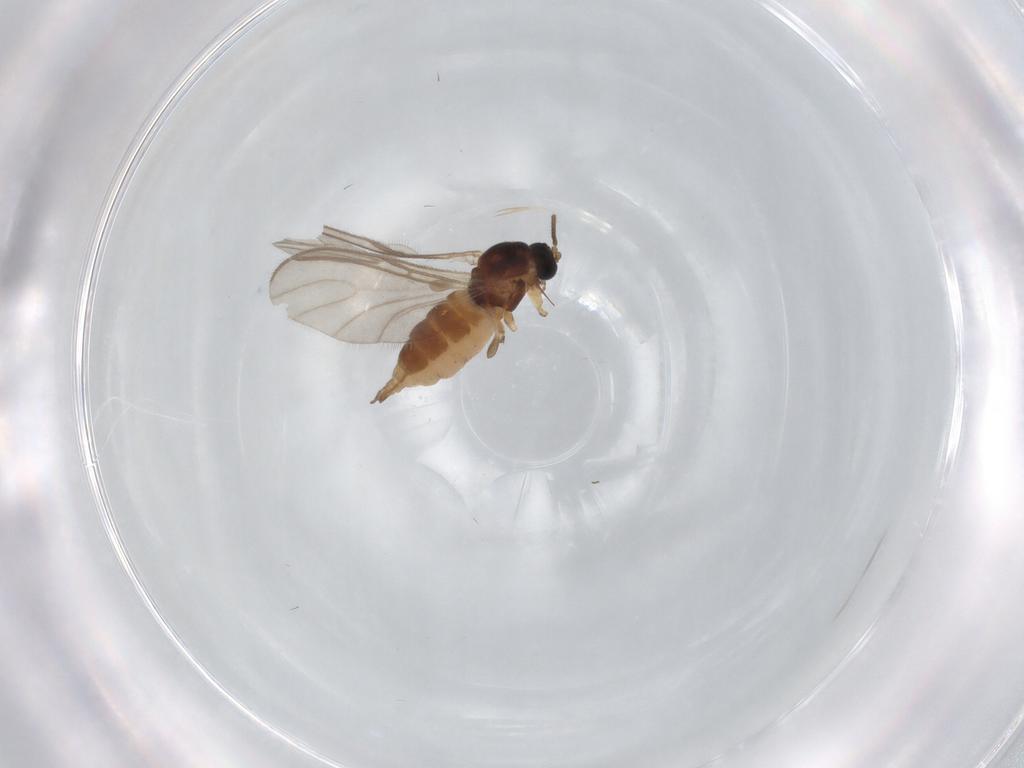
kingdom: Animalia
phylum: Arthropoda
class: Insecta
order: Diptera
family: Sciaridae
